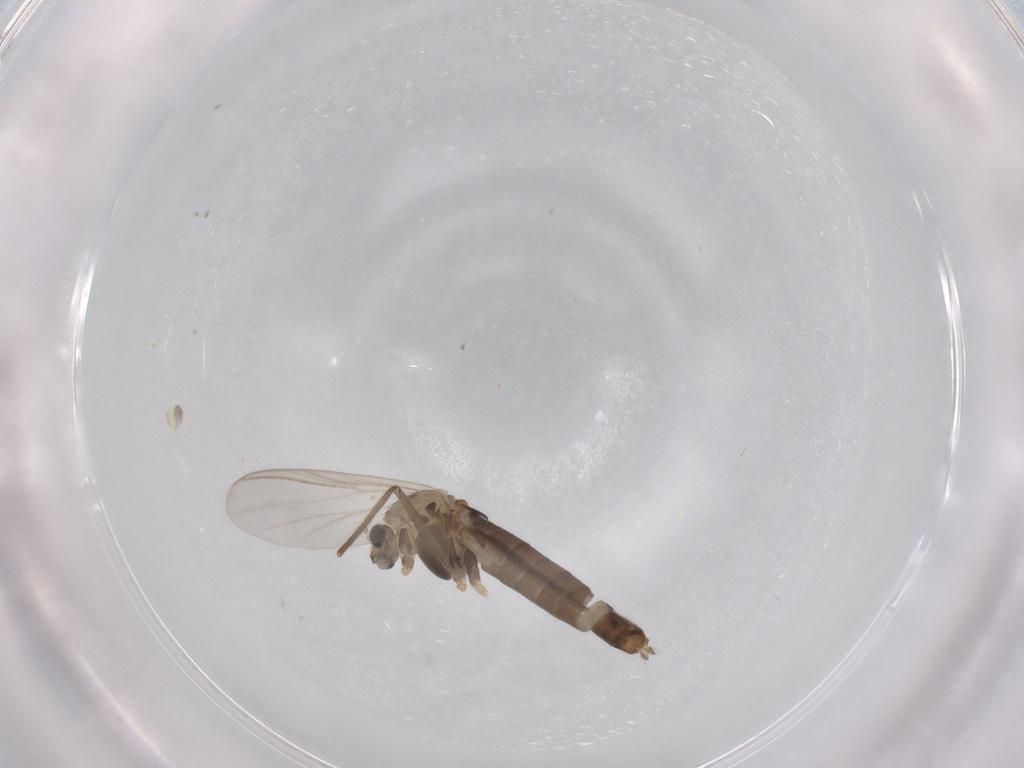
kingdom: Animalia
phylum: Arthropoda
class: Insecta
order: Diptera
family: Chironomidae
